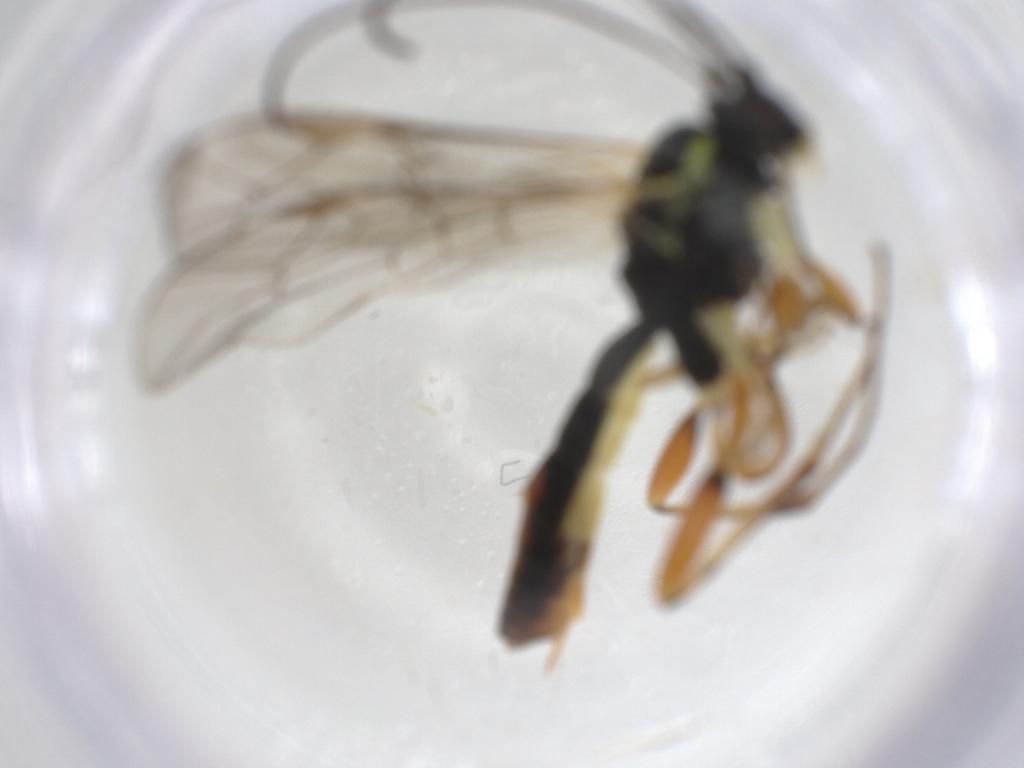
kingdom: Animalia
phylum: Arthropoda
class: Insecta
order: Hymenoptera
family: Ichneumonidae
